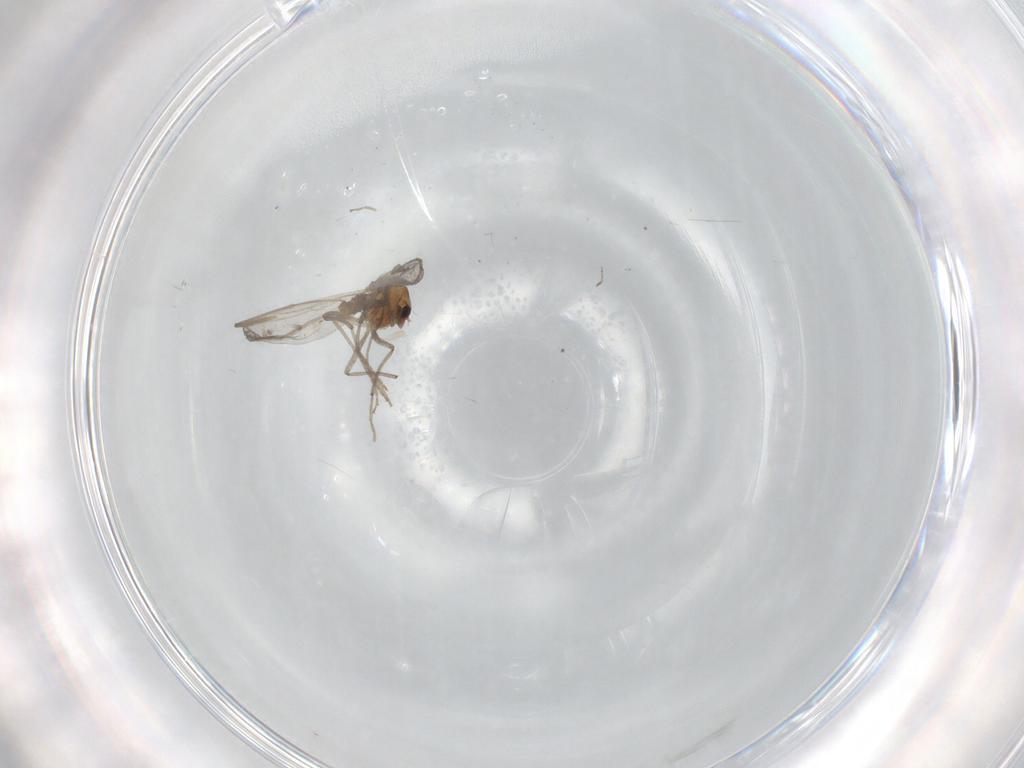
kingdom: Animalia
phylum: Arthropoda
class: Insecta
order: Diptera
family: Chironomidae
